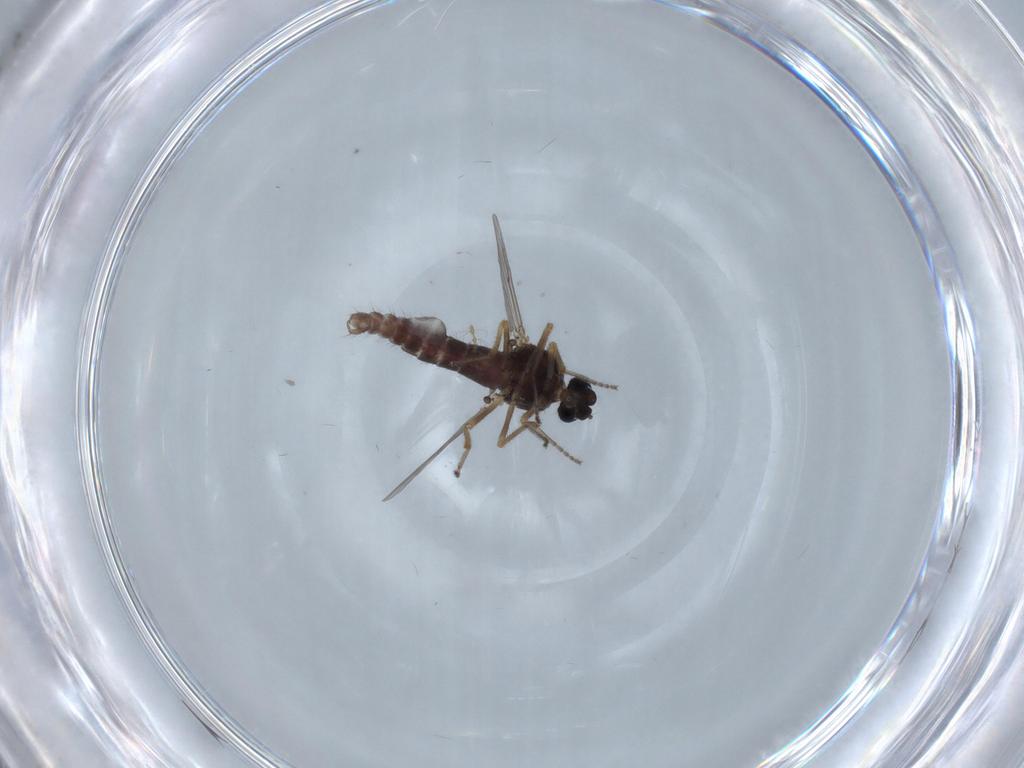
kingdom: Animalia
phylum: Arthropoda
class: Insecta
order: Diptera
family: Ceratopogonidae
